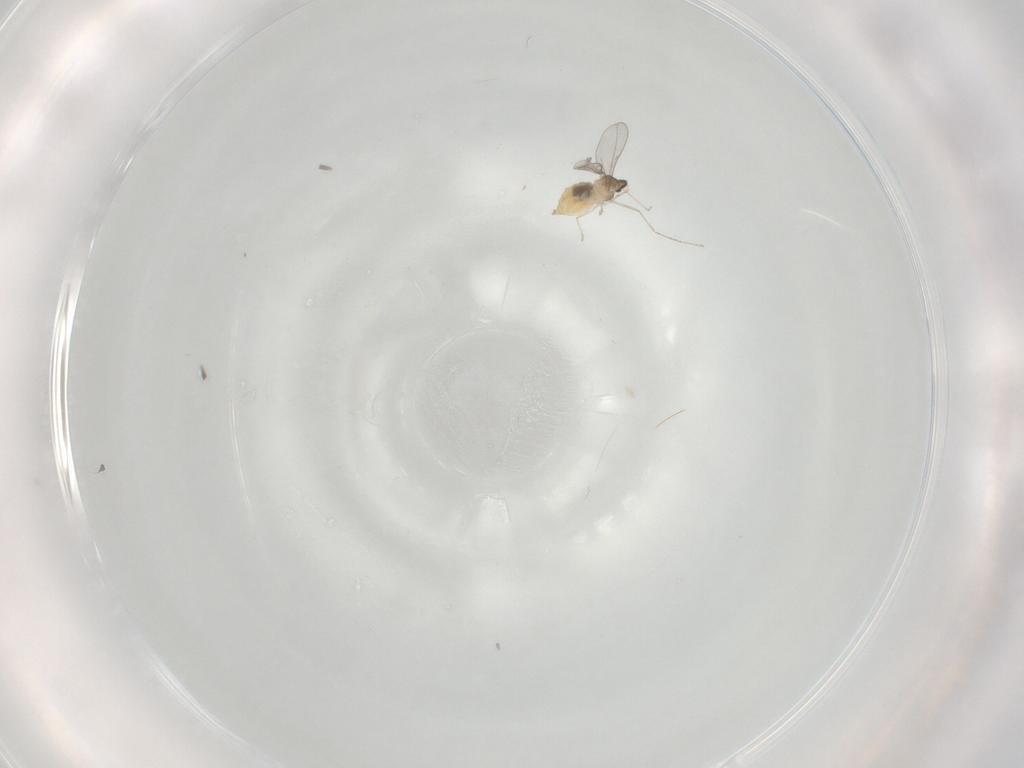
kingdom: Animalia
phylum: Arthropoda
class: Insecta
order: Diptera
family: Cecidomyiidae
